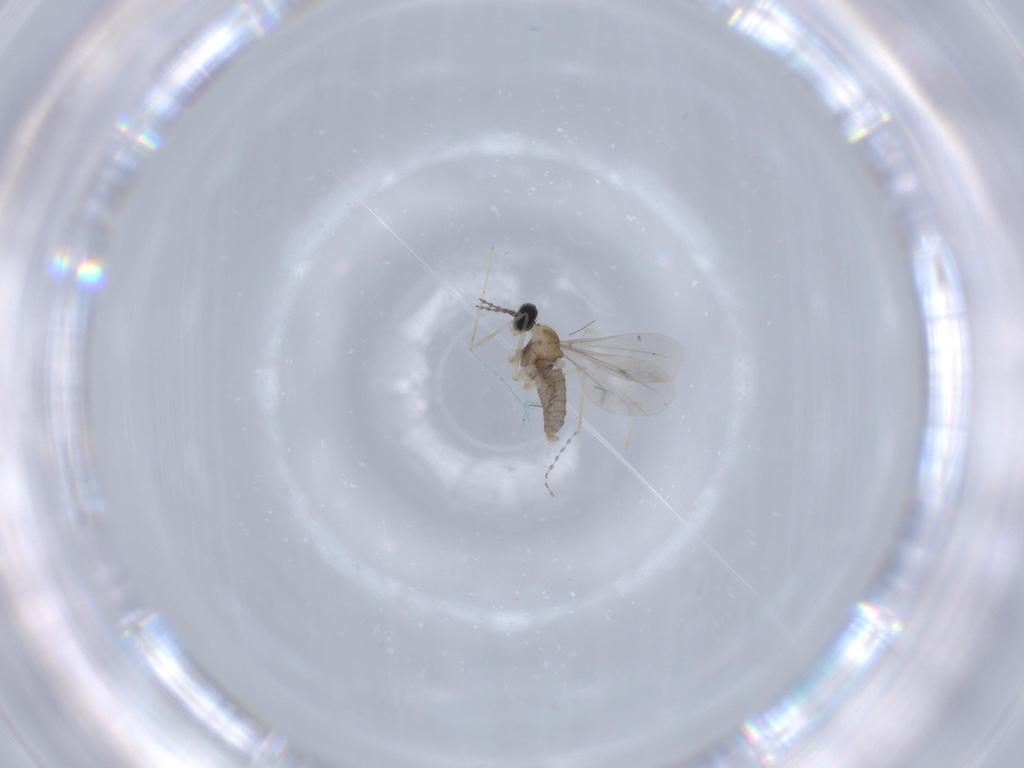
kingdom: Animalia
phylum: Arthropoda
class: Insecta
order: Diptera
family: Cecidomyiidae
